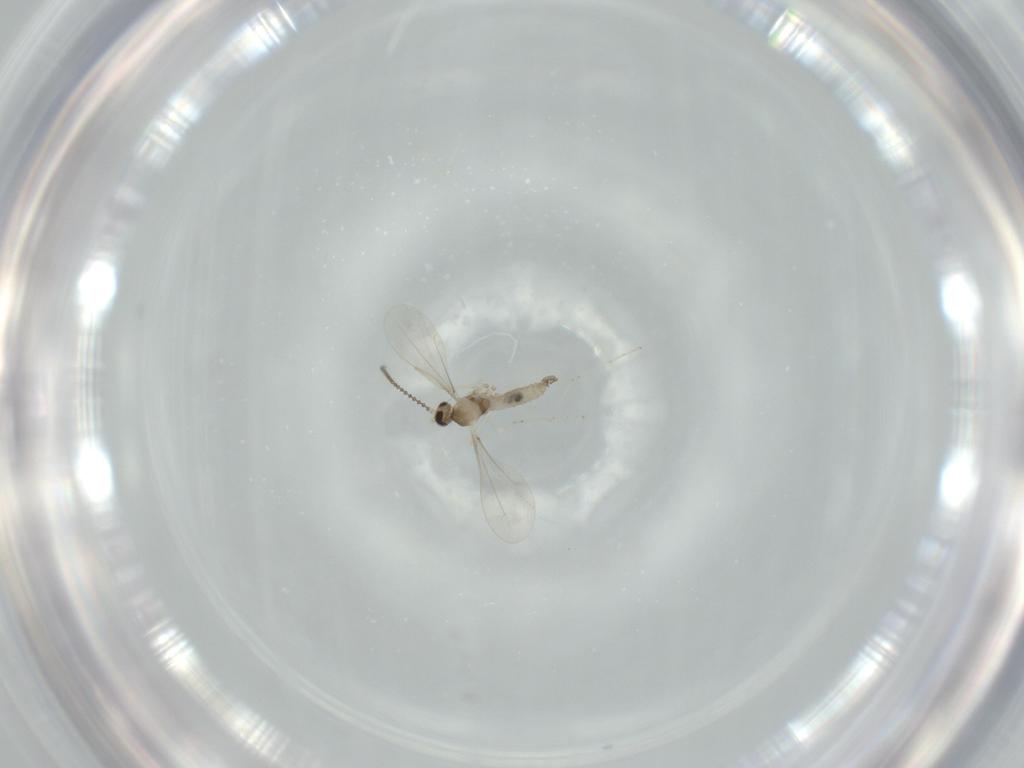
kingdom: Animalia
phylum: Arthropoda
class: Insecta
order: Diptera
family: Cecidomyiidae
